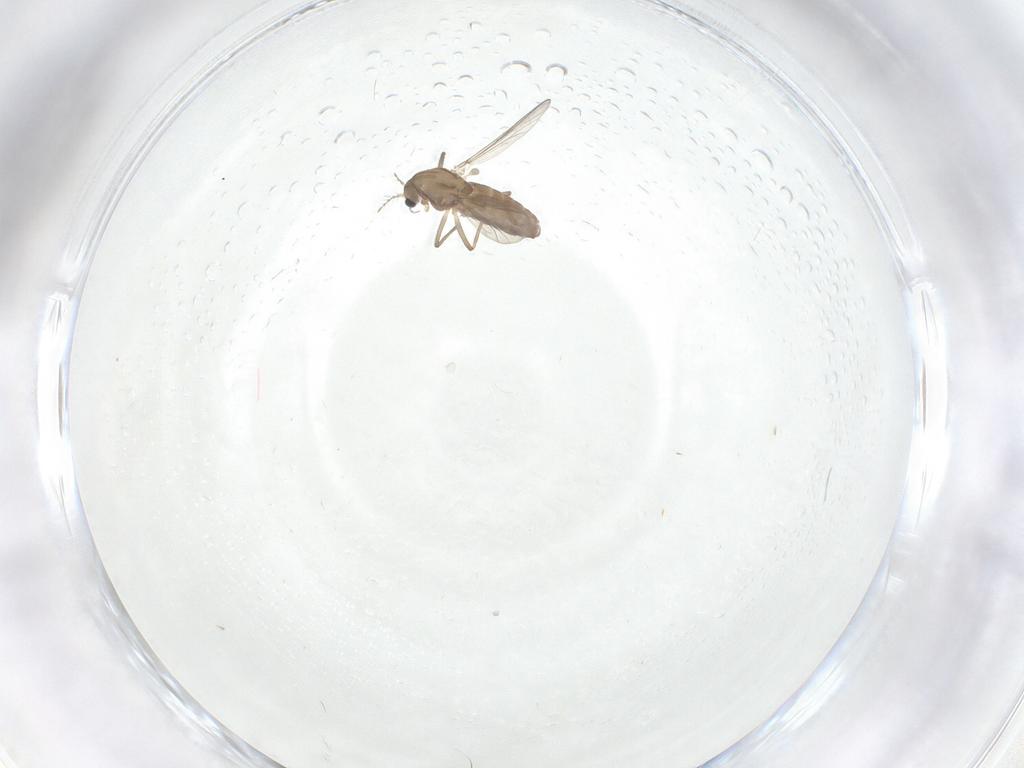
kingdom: Animalia
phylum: Arthropoda
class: Insecta
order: Diptera
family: Chironomidae
